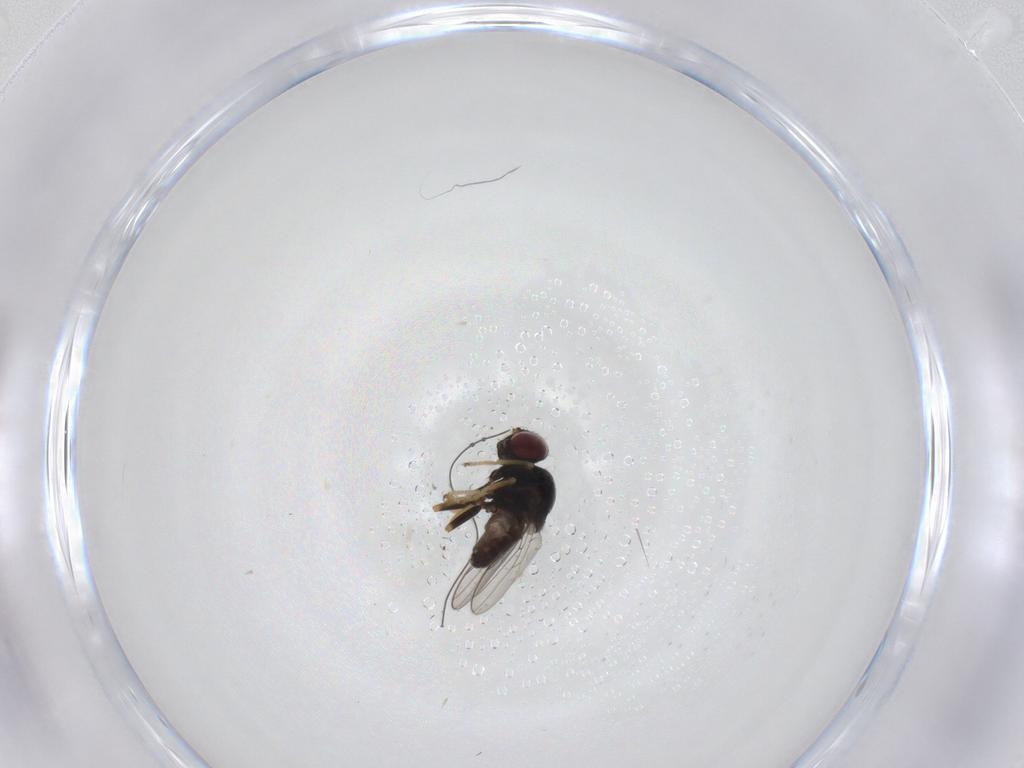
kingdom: Animalia
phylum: Arthropoda
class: Insecta
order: Diptera
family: Chloropidae
